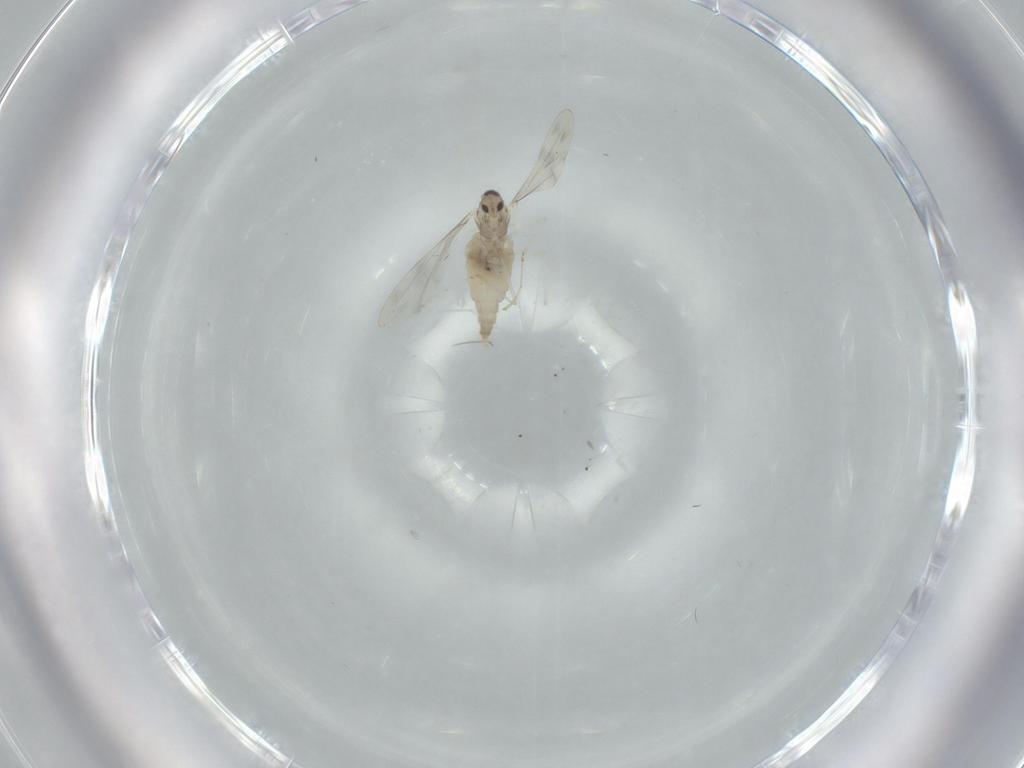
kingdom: Animalia
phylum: Arthropoda
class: Insecta
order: Diptera
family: Cecidomyiidae
